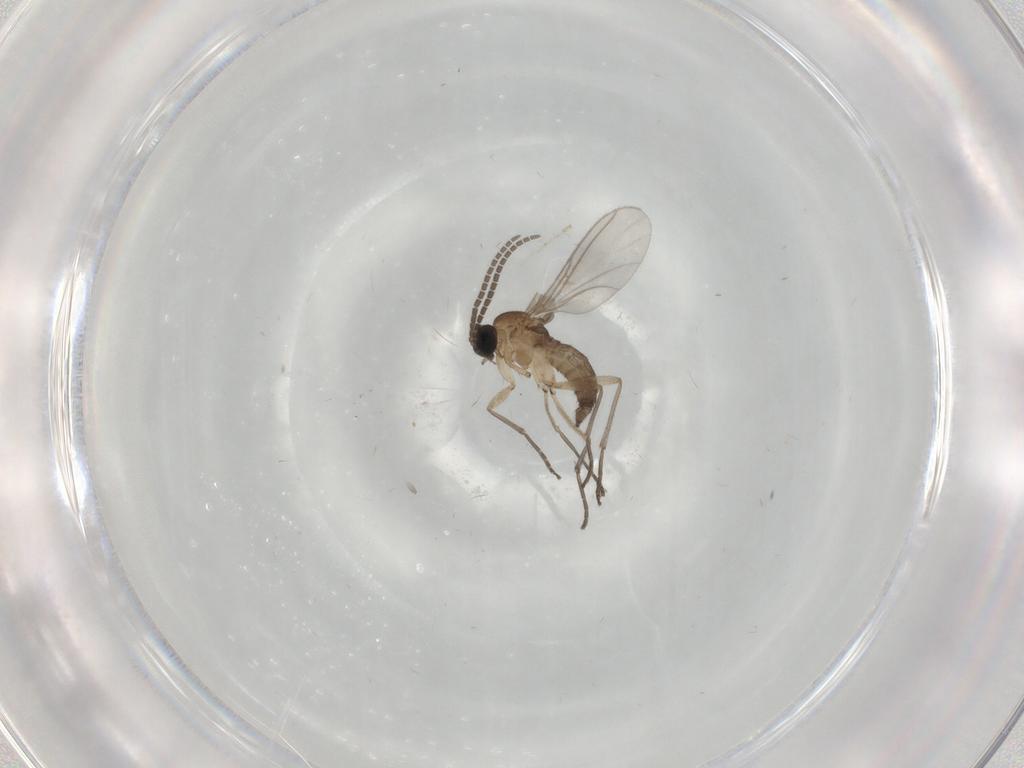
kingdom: Animalia
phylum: Arthropoda
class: Insecta
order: Diptera
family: Sciaridae
